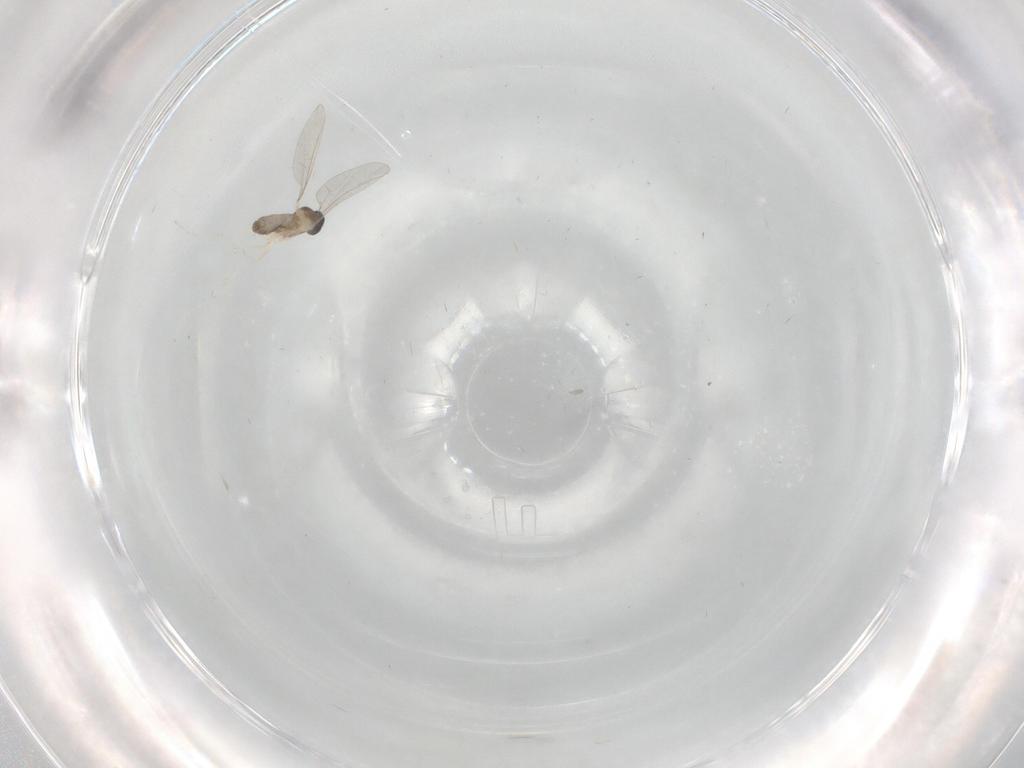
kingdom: Animalia
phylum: Arthropoda
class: Insecta
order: Diptera
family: Cecidomyiidae
